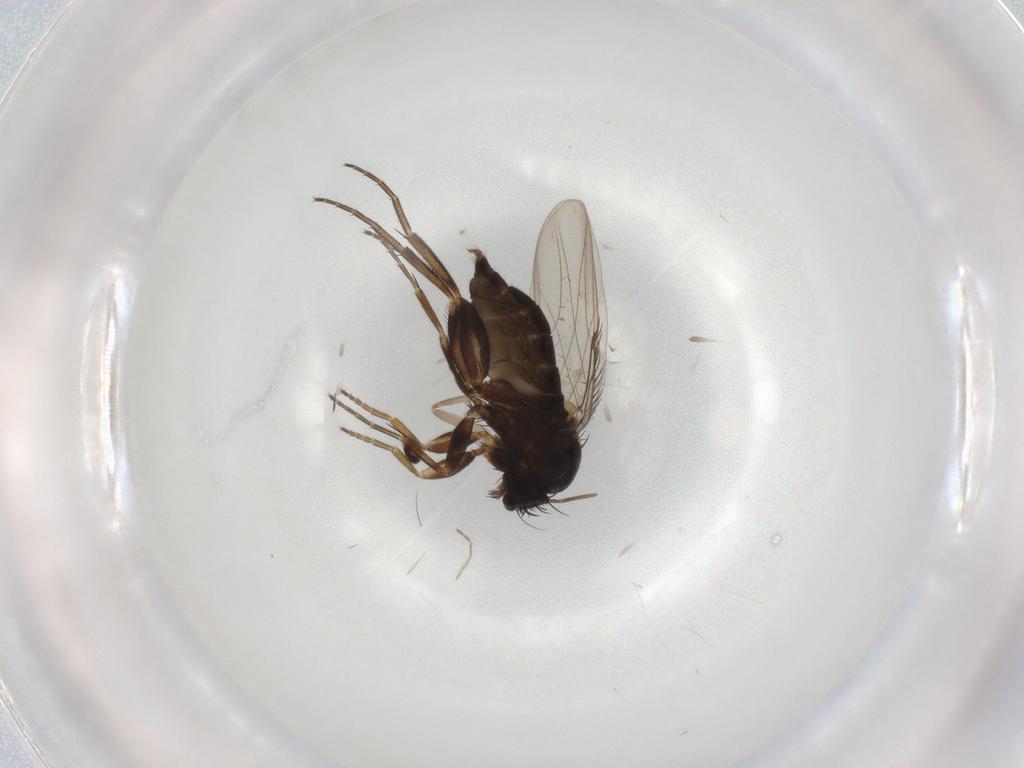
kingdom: Animalia
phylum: Arthropoda
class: Insecta
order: Diptera
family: Phoridae
